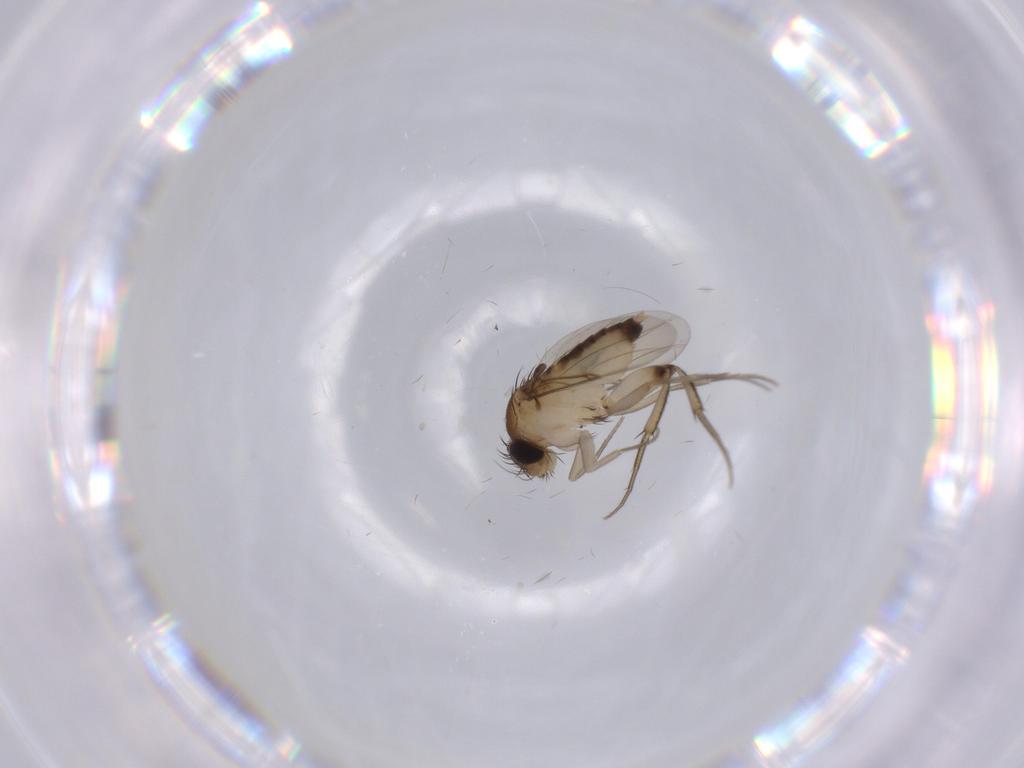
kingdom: Animalia
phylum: Arthropoda
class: Insecta
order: Diptera
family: Phoridae
